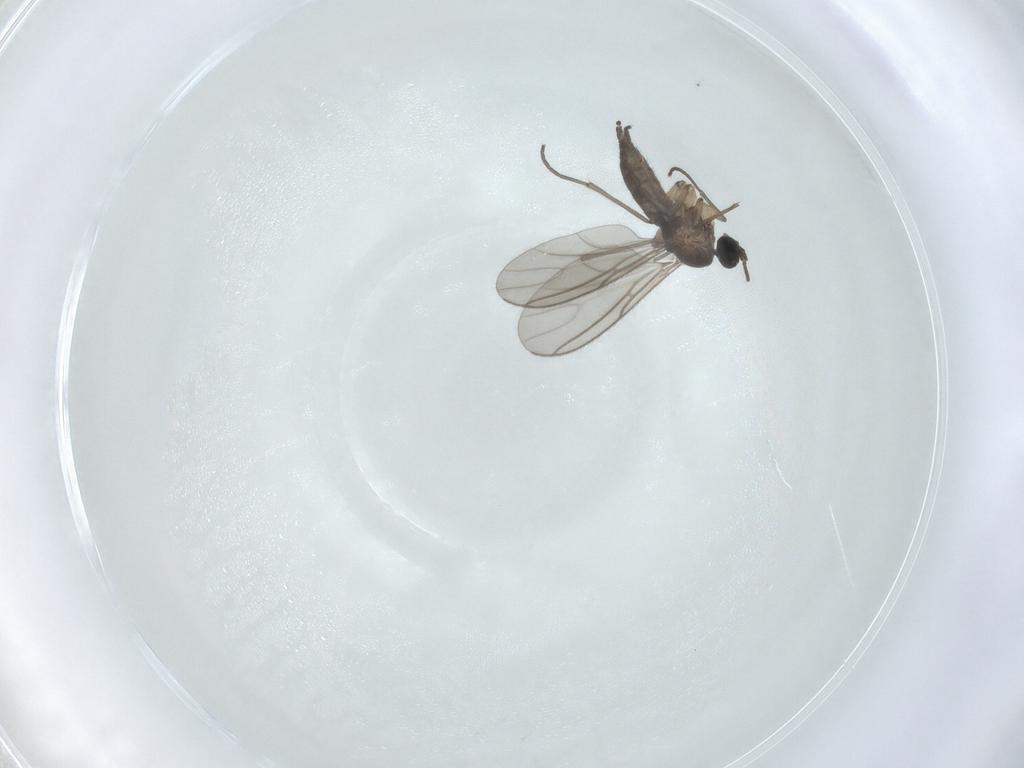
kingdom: Animalia
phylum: Arthropoda
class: Insecta
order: Diptera
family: Sciaridae
